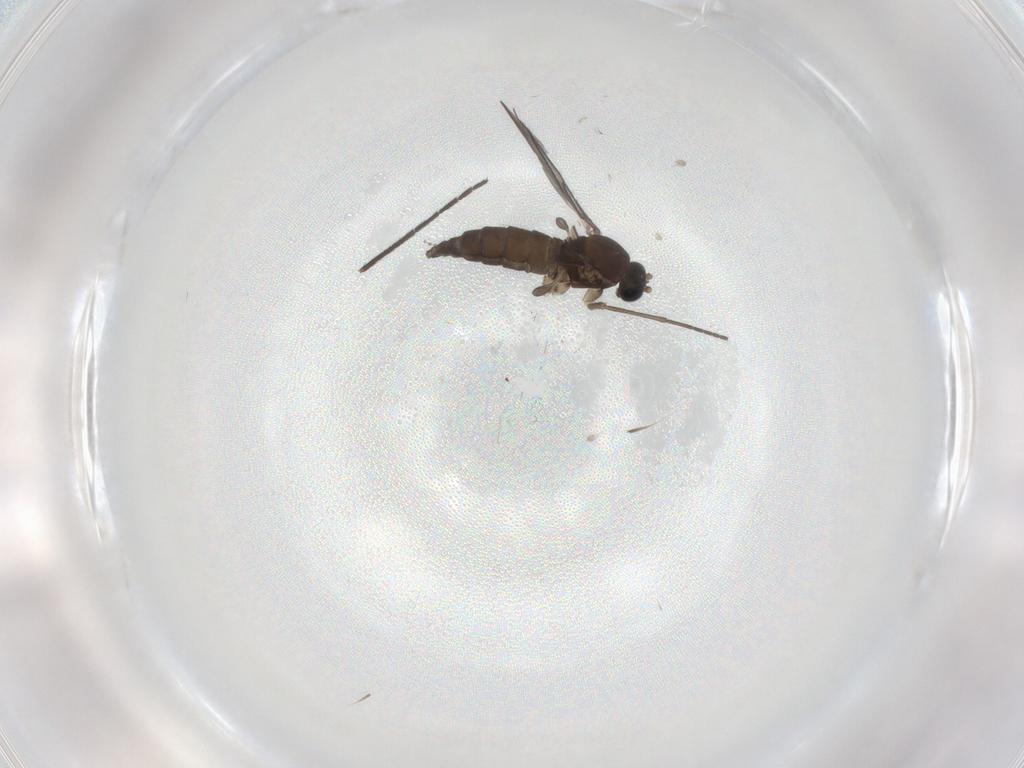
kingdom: Animalia
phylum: Arthropoda
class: Insecta
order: Diptera
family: Sciaridae
